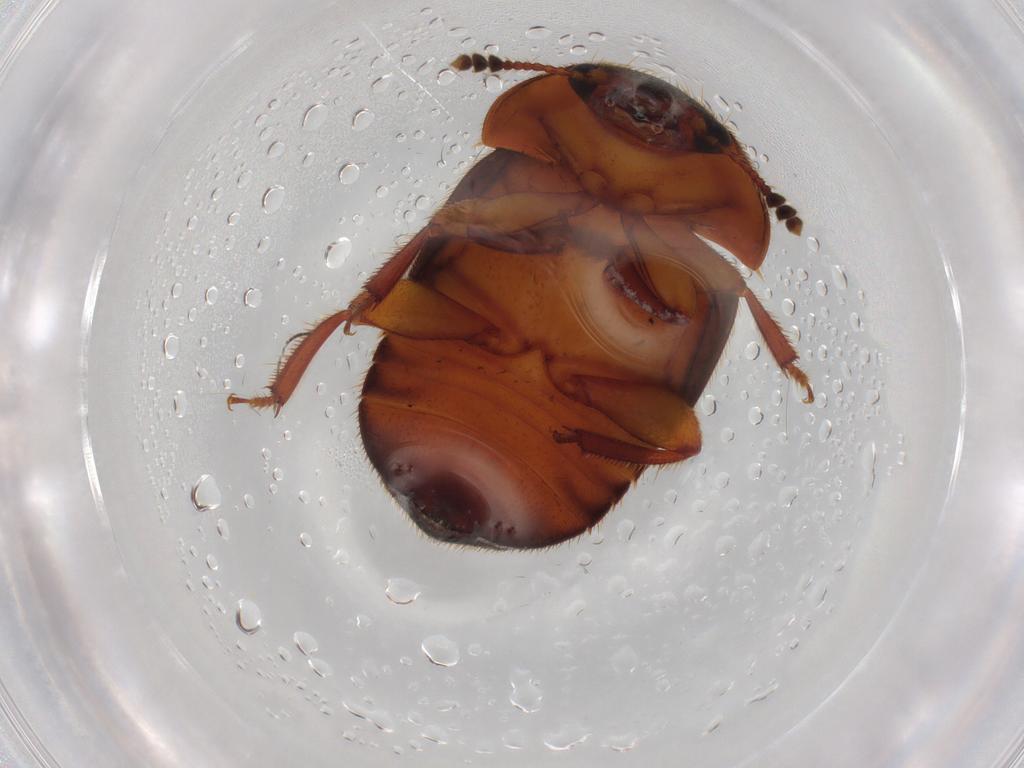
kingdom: Animalia
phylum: Arthropoda
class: Insecta
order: Coleoptera
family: Nitidulidae
